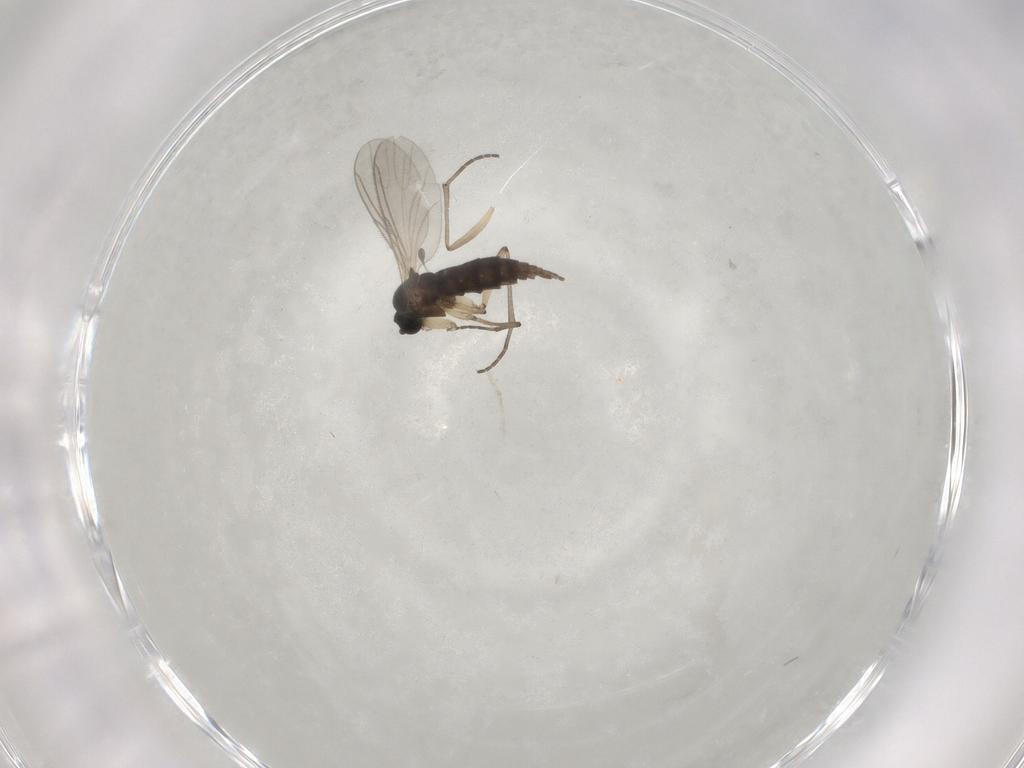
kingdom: Animalia
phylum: Arthropoda
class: Insecta
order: Diptera
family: Sciaridae
